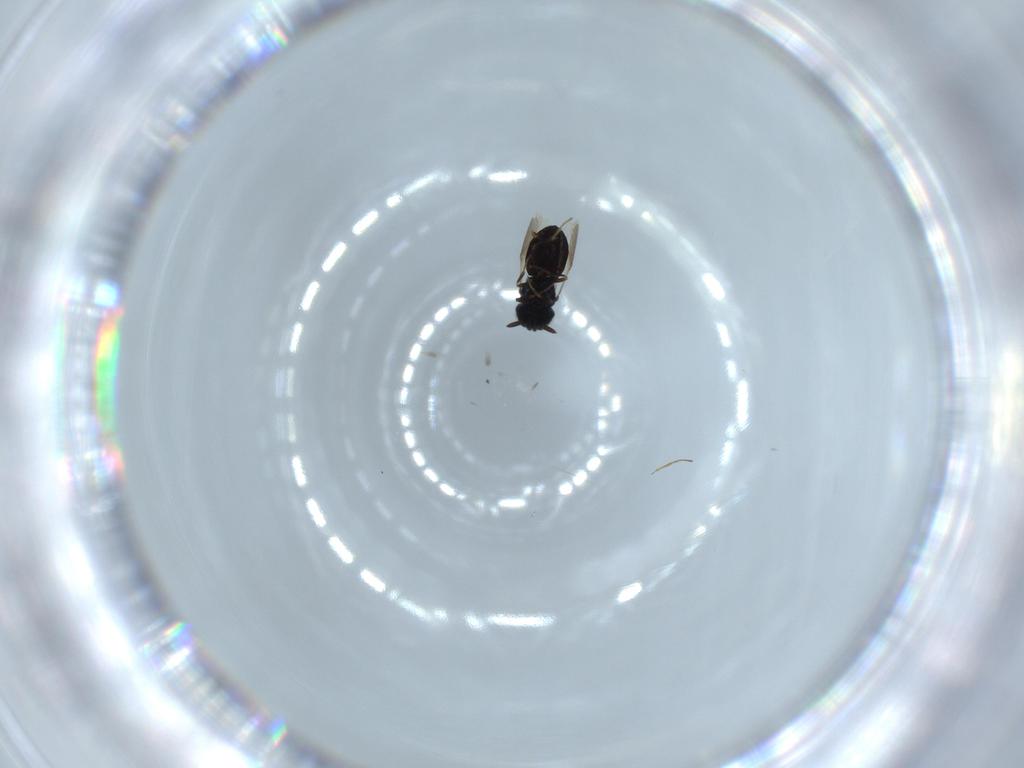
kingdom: Animalia
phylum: Arthropoda
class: Insecta
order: Hymenoptera
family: Scelionidae
